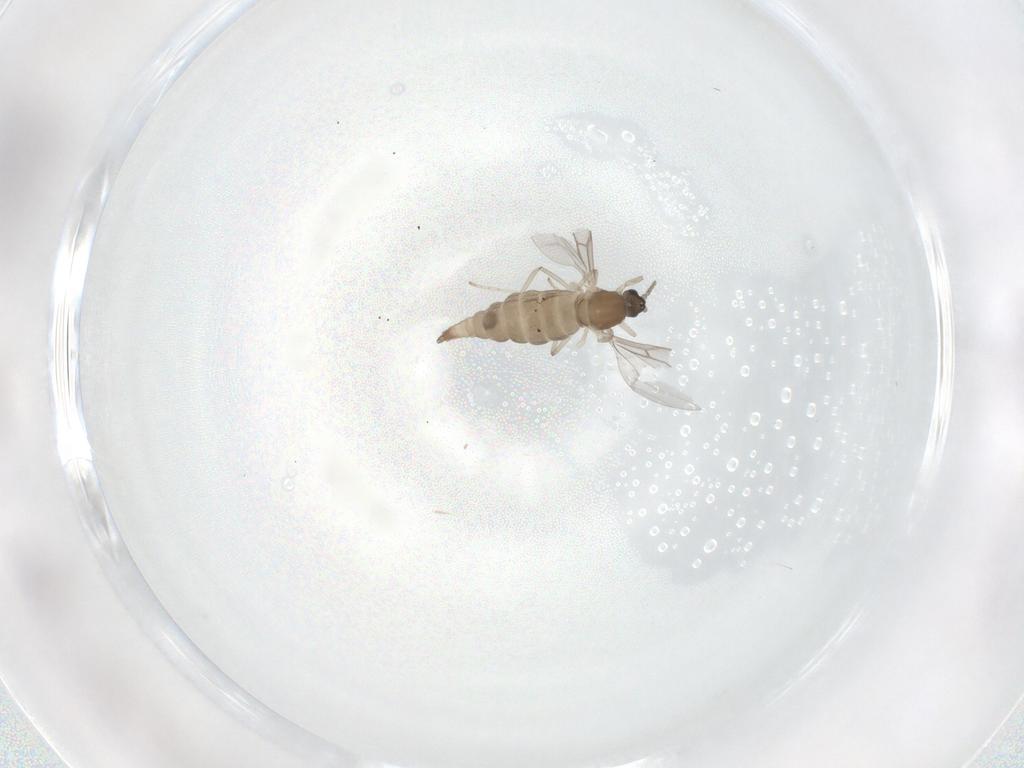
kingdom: Animalia
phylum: Arthropoda
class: Insecta
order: Diptera
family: Cecidomyiidae
